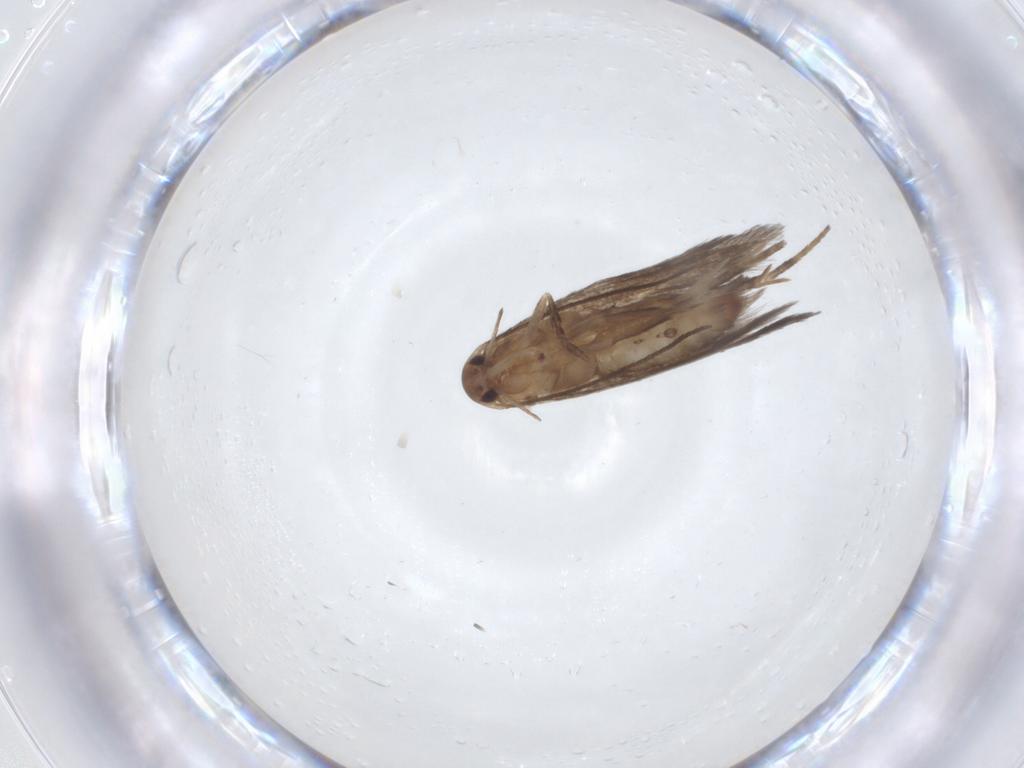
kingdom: Animalia
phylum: Arthropoda
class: Insecta
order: Lepidoptera
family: Elachistidae
